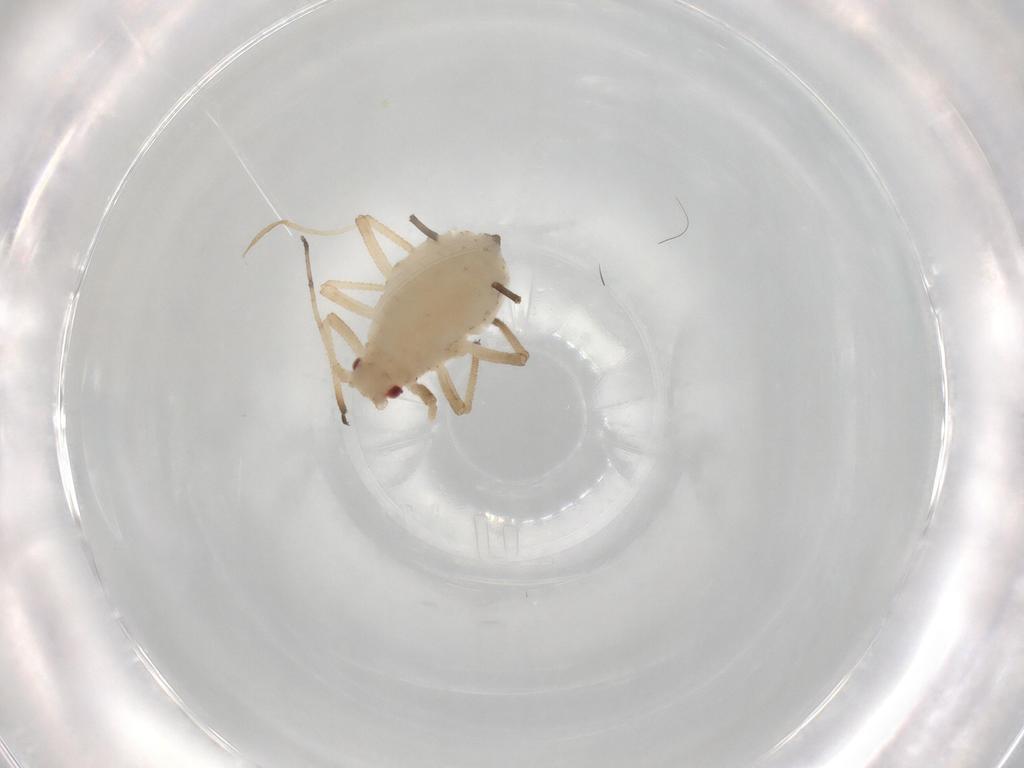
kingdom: Animalia
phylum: Arthropoda
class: Insecta
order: Hemiptera
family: Aphididae
